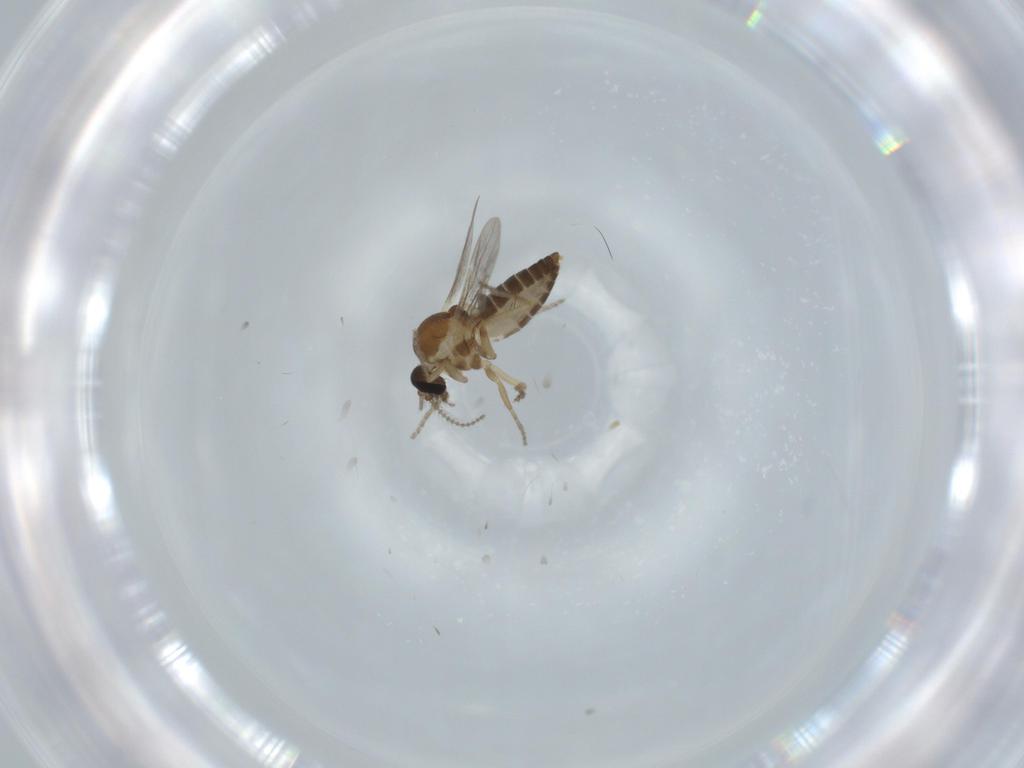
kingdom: Animalia
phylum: Arthropoda
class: Insecta
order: Diptera
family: Ceratopogonidae
